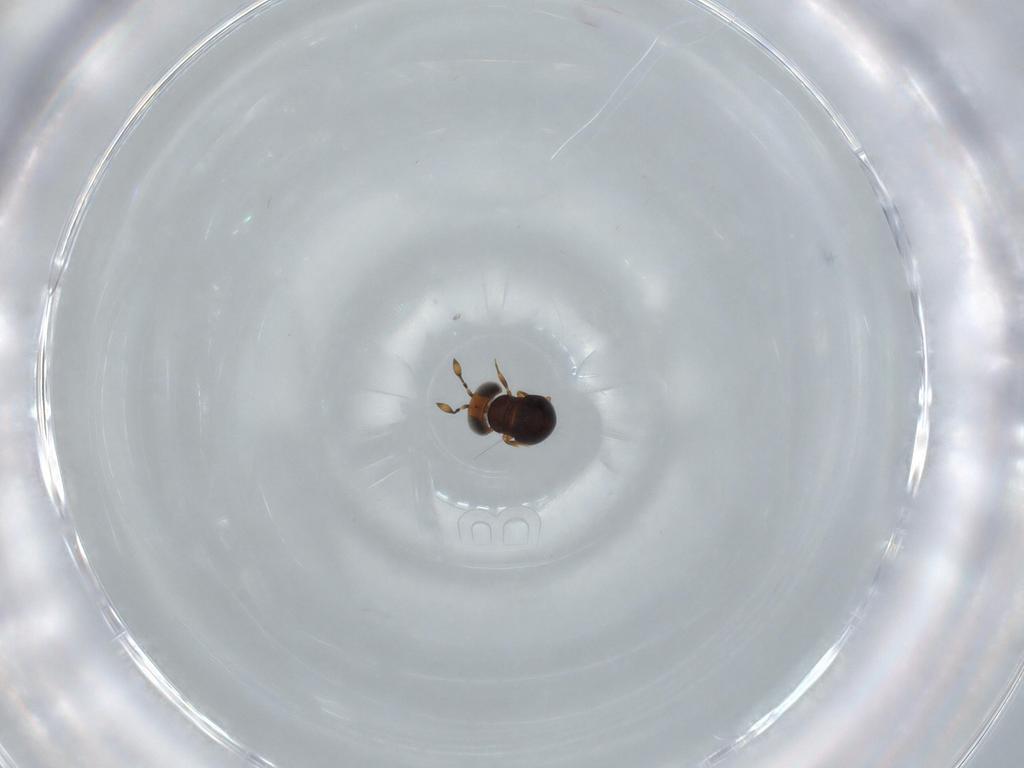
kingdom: Animalia
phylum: Arthropoda
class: Insecta
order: Hymenoptera
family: Scelionidae
